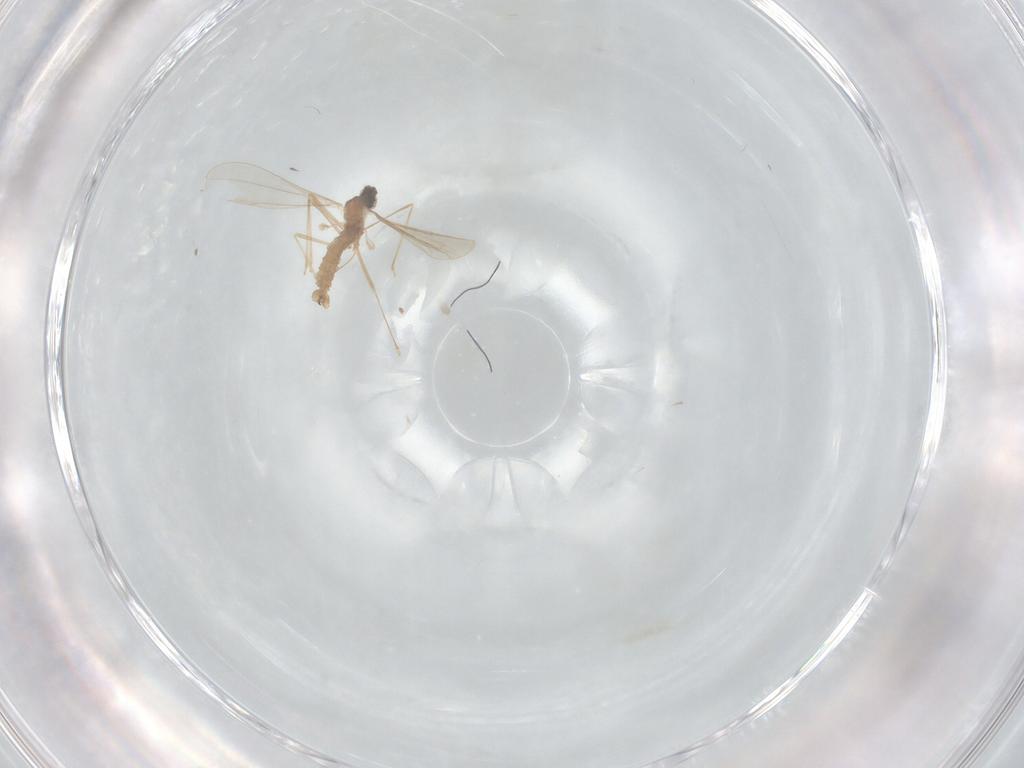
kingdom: Animalia
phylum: Arthropoda
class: Insecta
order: Diptera
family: Cecidomyiidae
